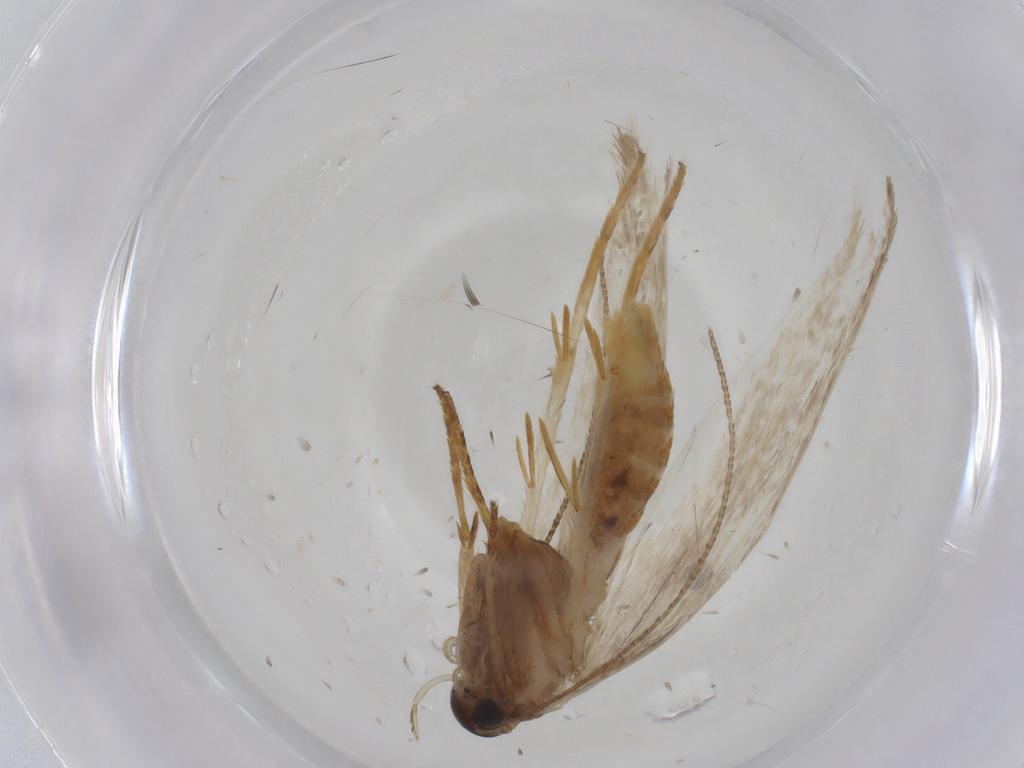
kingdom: Animalia
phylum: Arthropoda
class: Insecta
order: Lepidoptera
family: Erebidae
